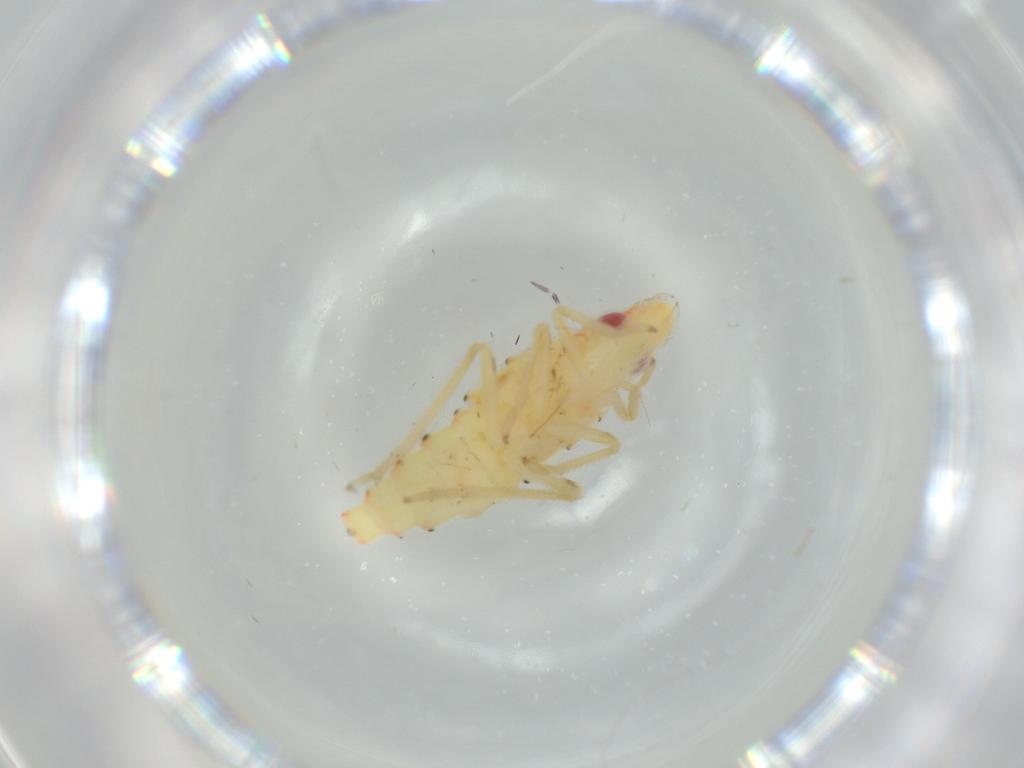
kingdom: Animalia
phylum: Arthropoda
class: Insecta
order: Hemiptera
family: Tropiduchidae
